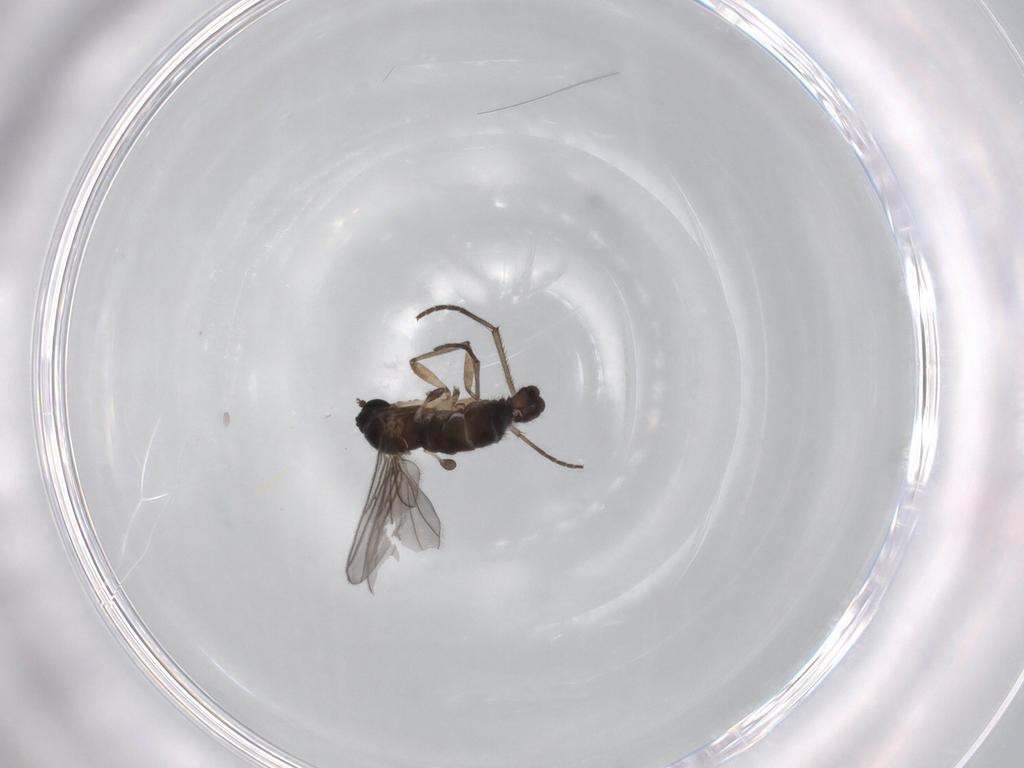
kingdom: Animalia
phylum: Arthropoda
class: Insecta
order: Diptera
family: Sciaridae
